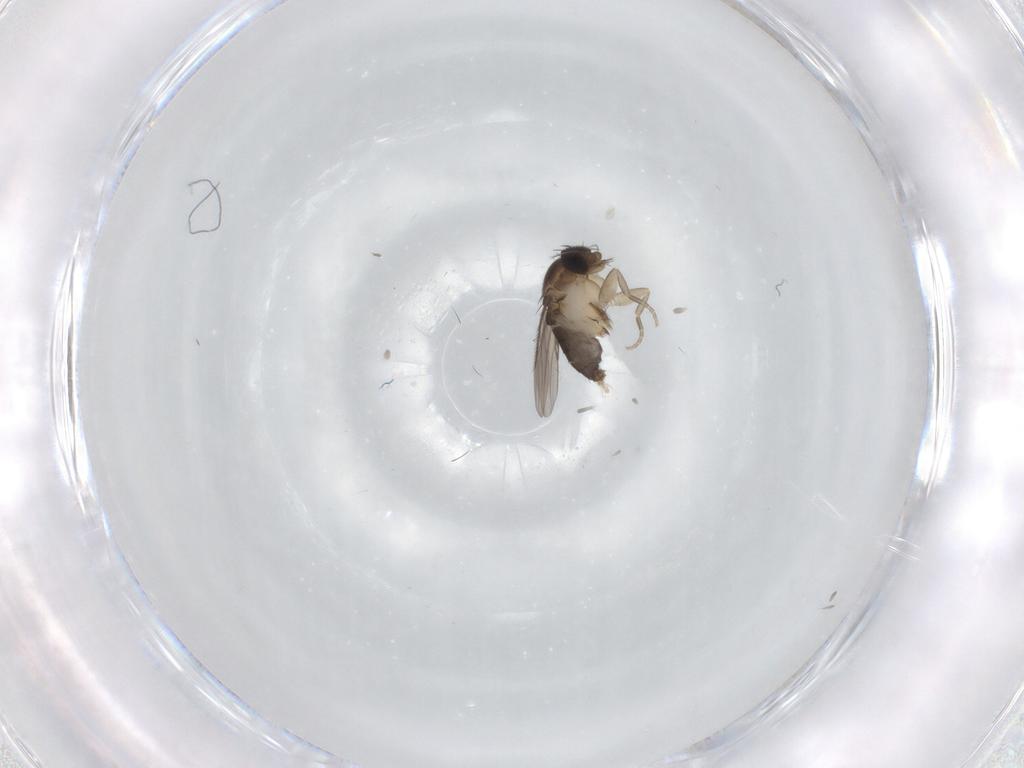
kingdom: Animalia
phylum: Arthropoda
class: Insecta
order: Diptera
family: Phoridae
